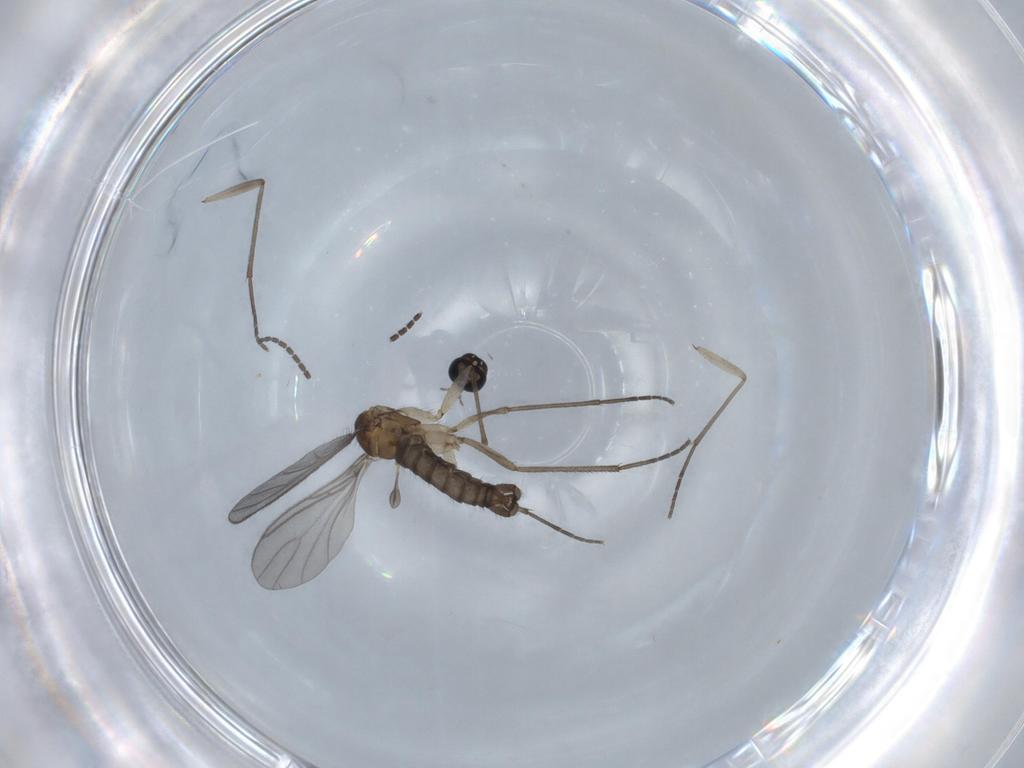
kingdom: Animalia
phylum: Arthropoda
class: Insecta
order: Diptera
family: Sciaridae
